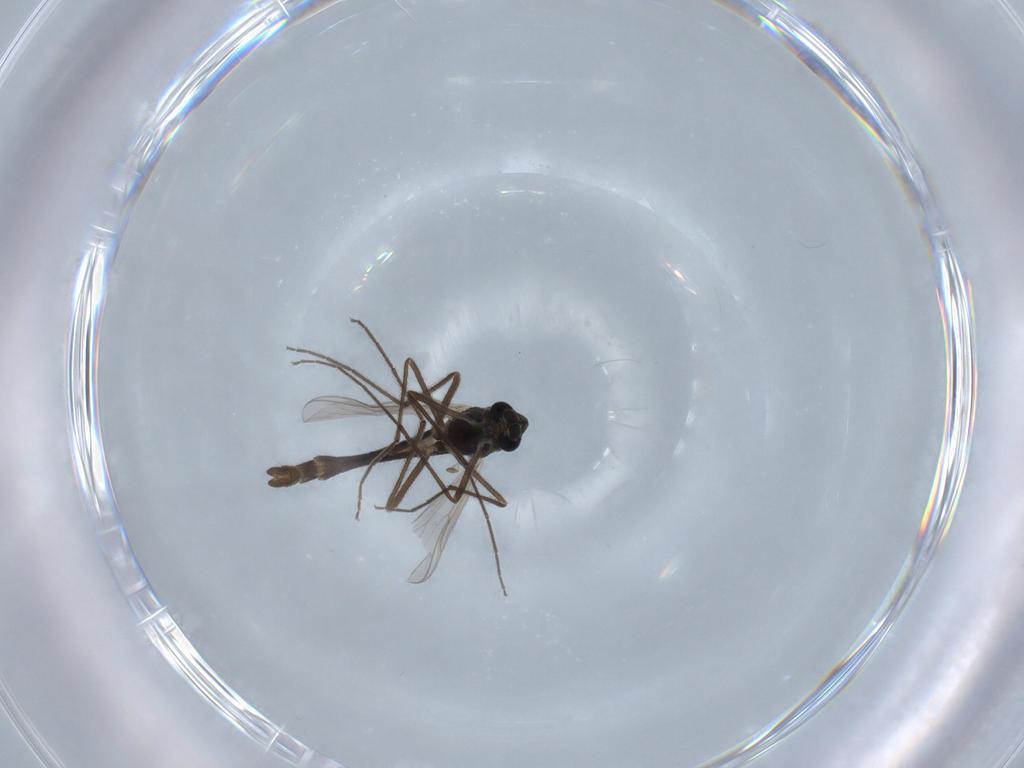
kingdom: Animalia
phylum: Arthropoda
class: Insecta
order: Diptera
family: Chironomidae
